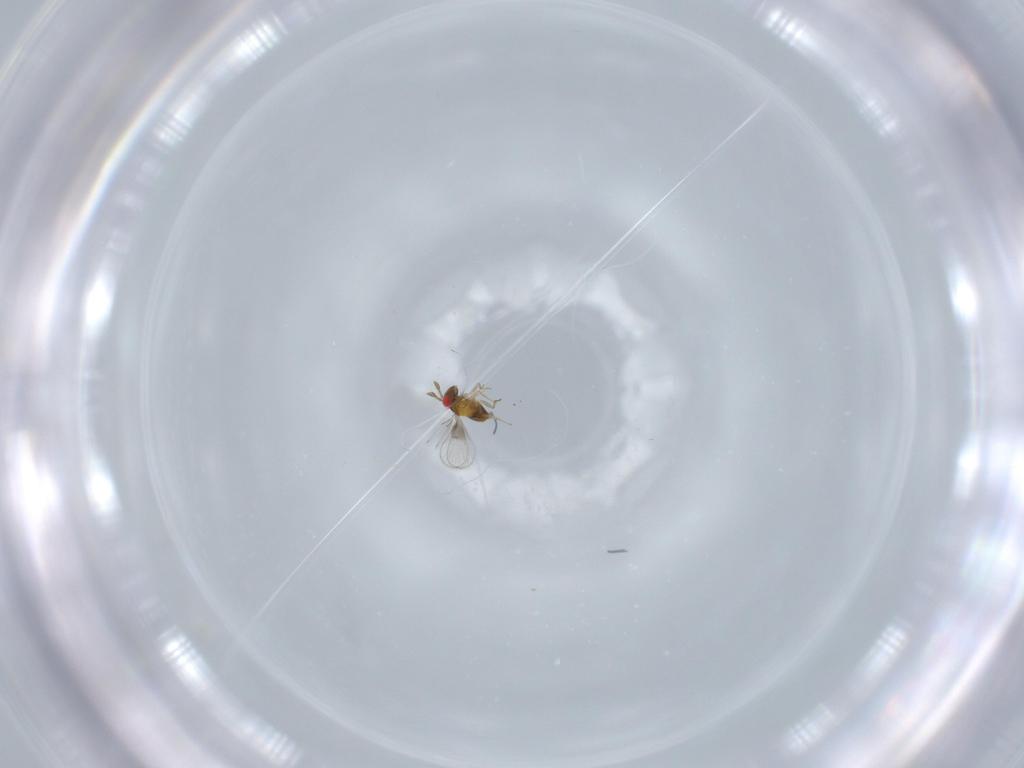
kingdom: Animalia
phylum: Arthropoda
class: Insecta
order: Hymenoptera
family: Trichogrammatidae
